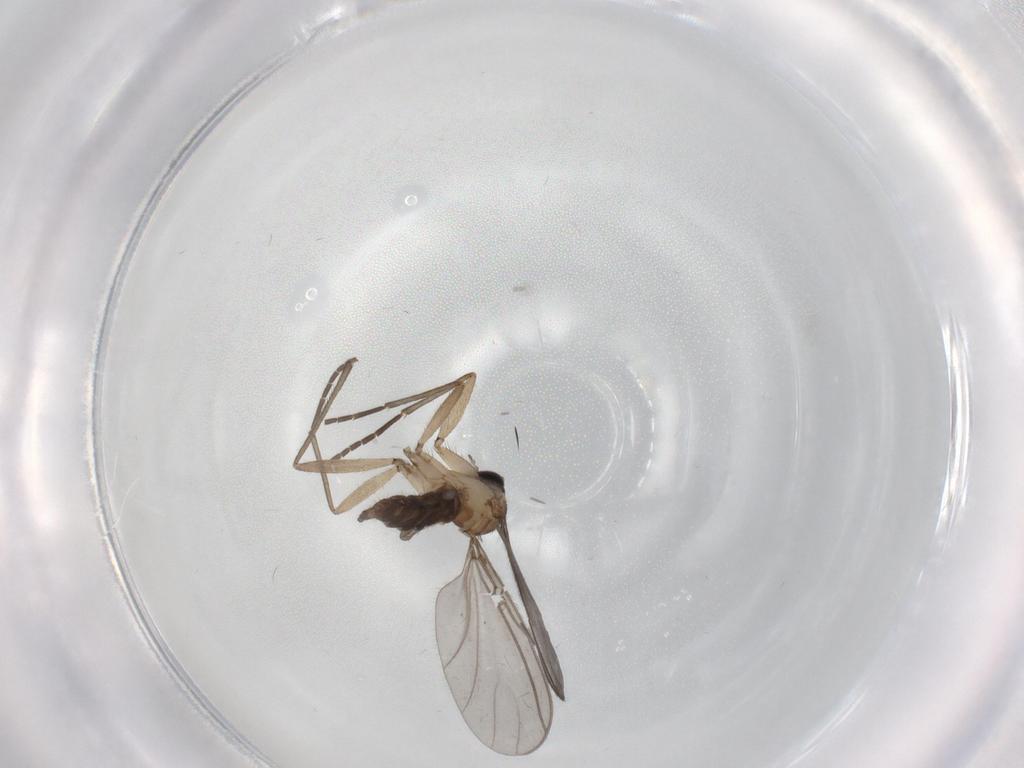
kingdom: Animalia
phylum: Arthropoda
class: Insecta
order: Diptera
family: Sciaridae
